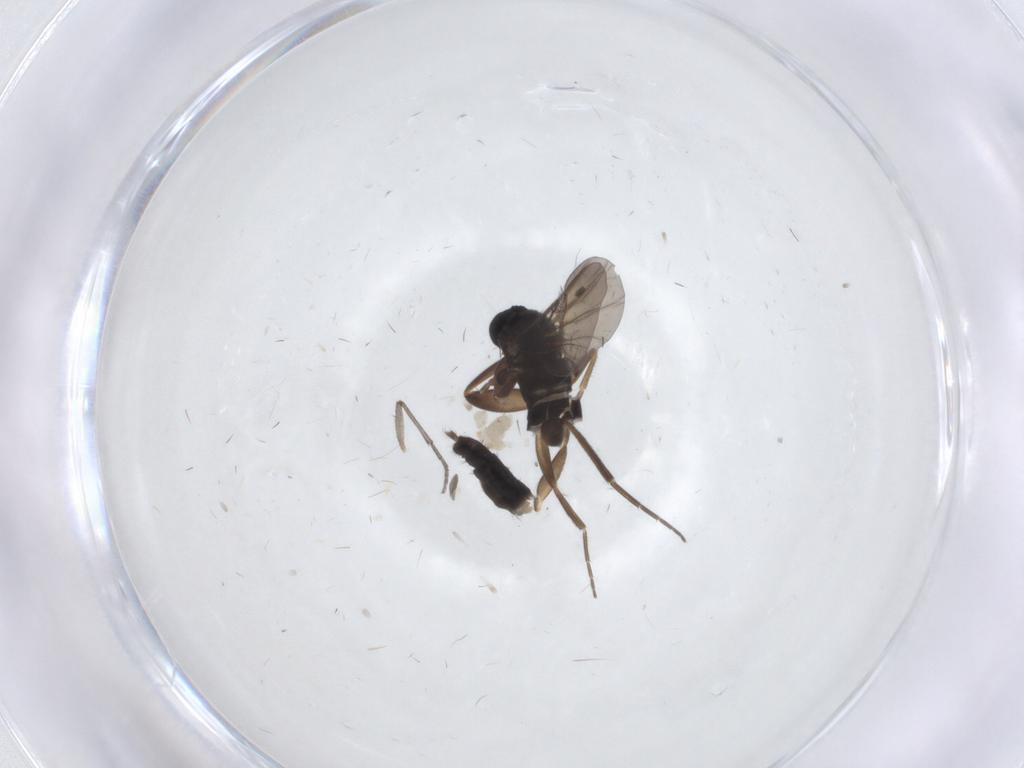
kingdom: Animalia
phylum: Arthropoda
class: Insecta
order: Diptera
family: Phoridae
